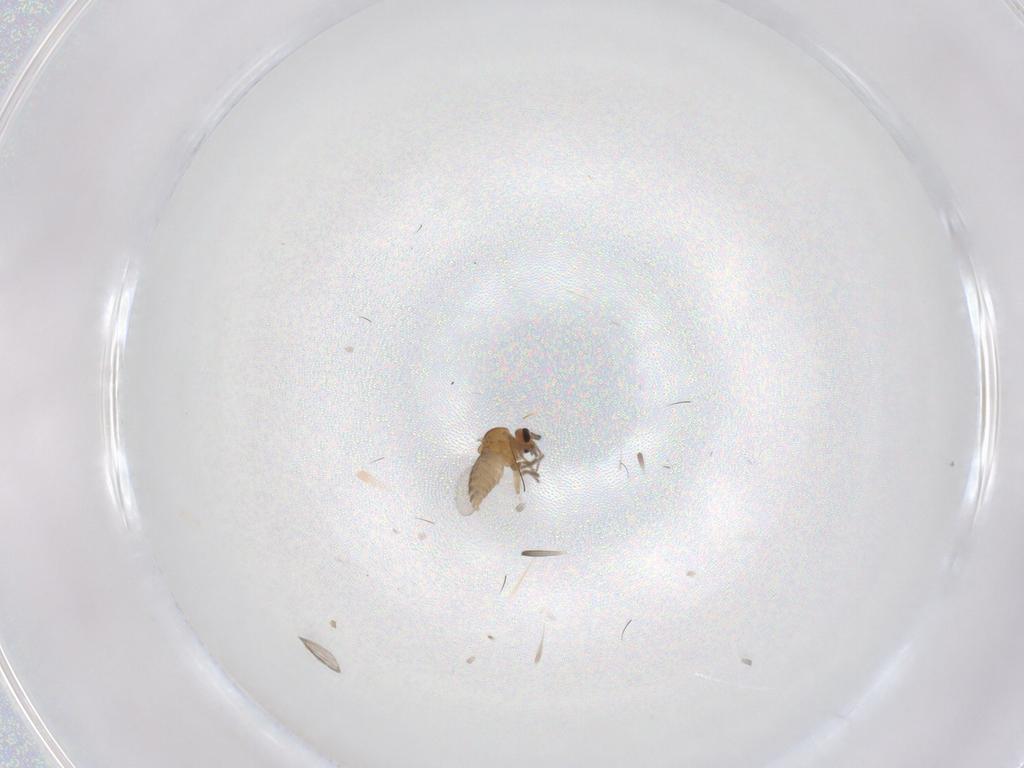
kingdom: Animalia
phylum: Arthropoda
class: Insecta
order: Diptera
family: Ceratopogonidae
